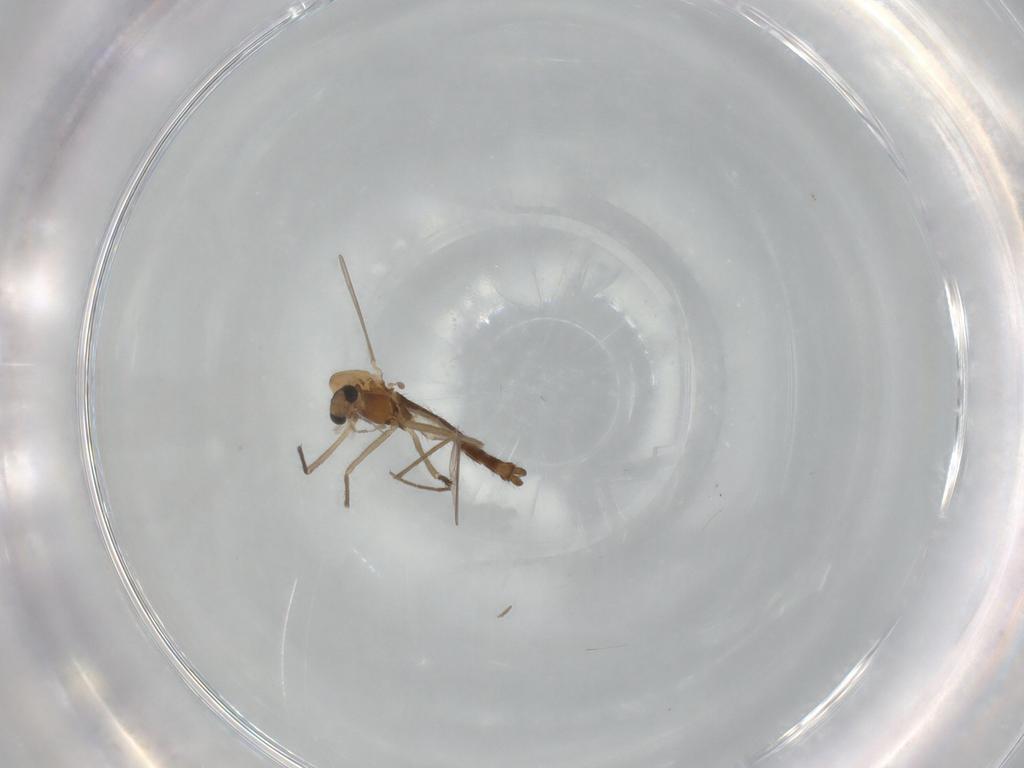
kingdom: Animalia
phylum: Arthropoda
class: Insecta
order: Diptera
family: Chironomidae
